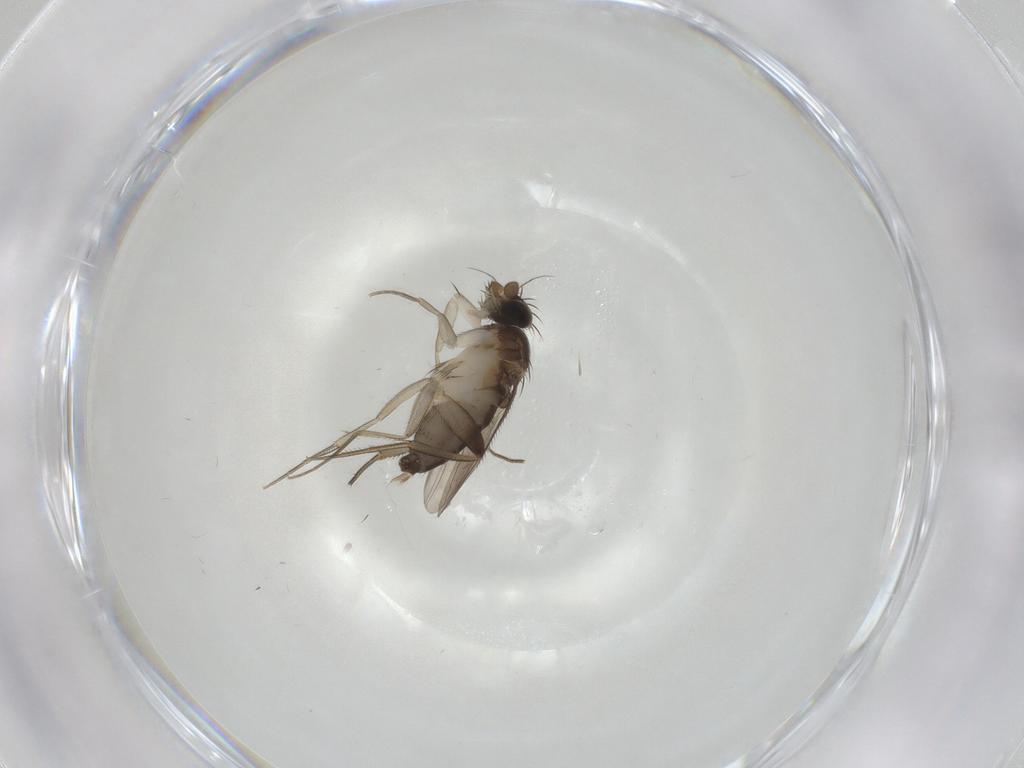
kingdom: Animalia
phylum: Arthropoda
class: Insecta
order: Diptera
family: Phoridae
